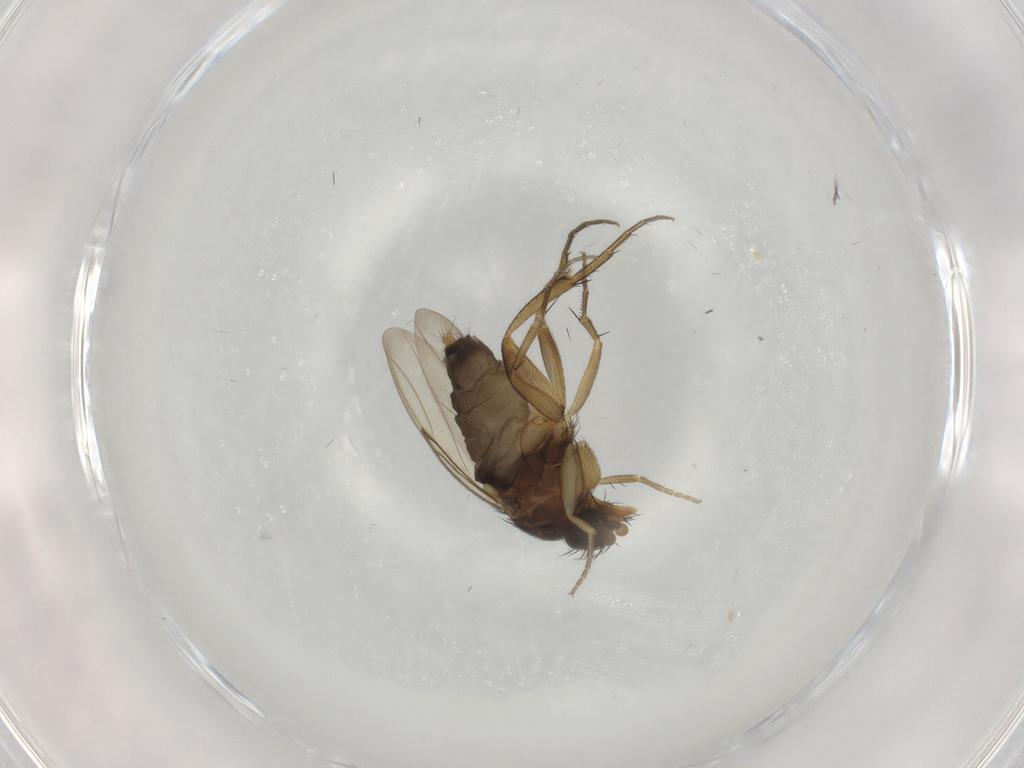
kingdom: Animalia
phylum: Arthropoda
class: Insecta
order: Diptera
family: Phoridae
